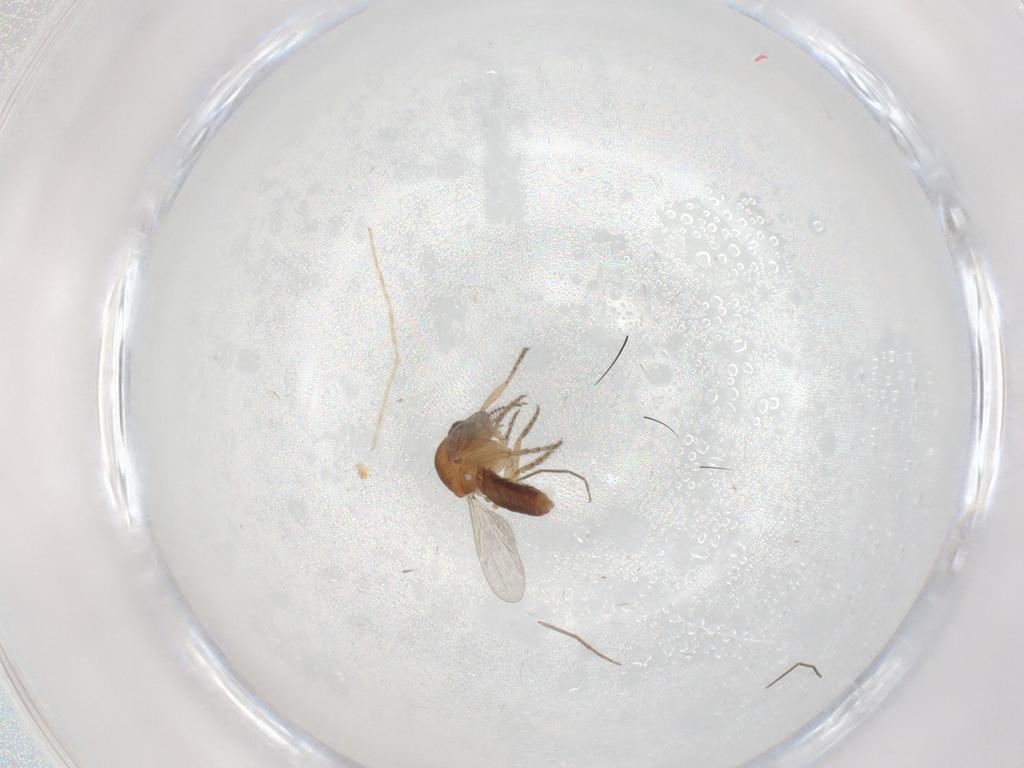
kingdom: Animalia
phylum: Arthropoda
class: Insecta
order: Diptera
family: Ceratopogonidae
